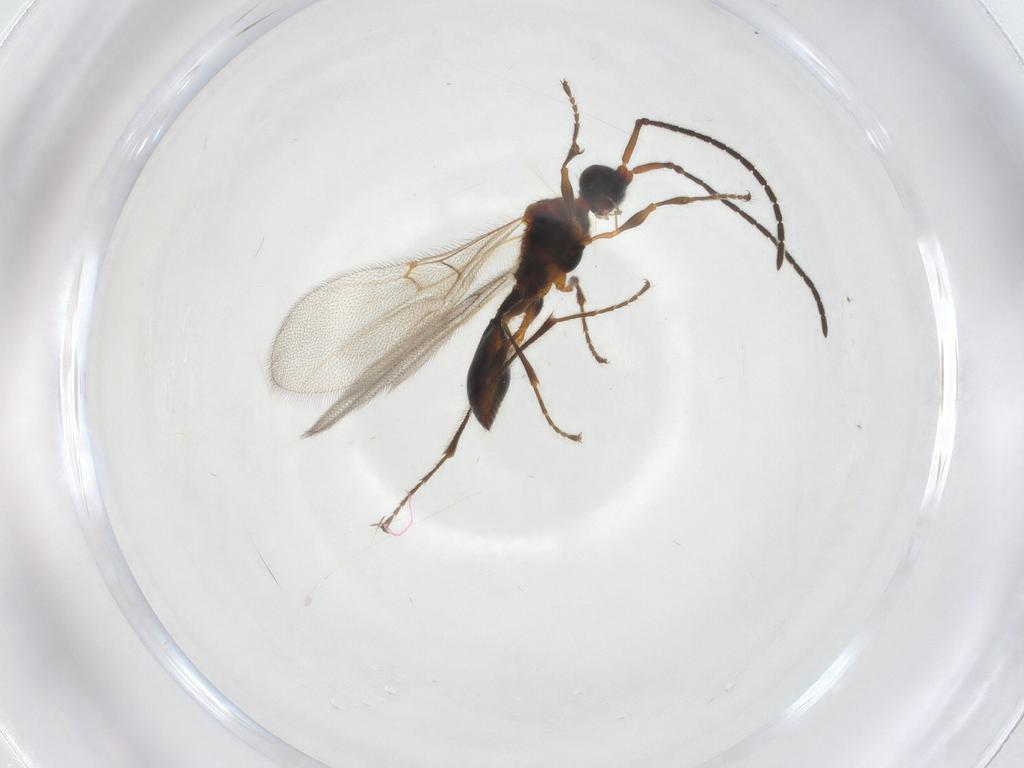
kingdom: Animalia
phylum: Arthropoda
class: Insecta
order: Hymenoptera
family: Diapriidae
